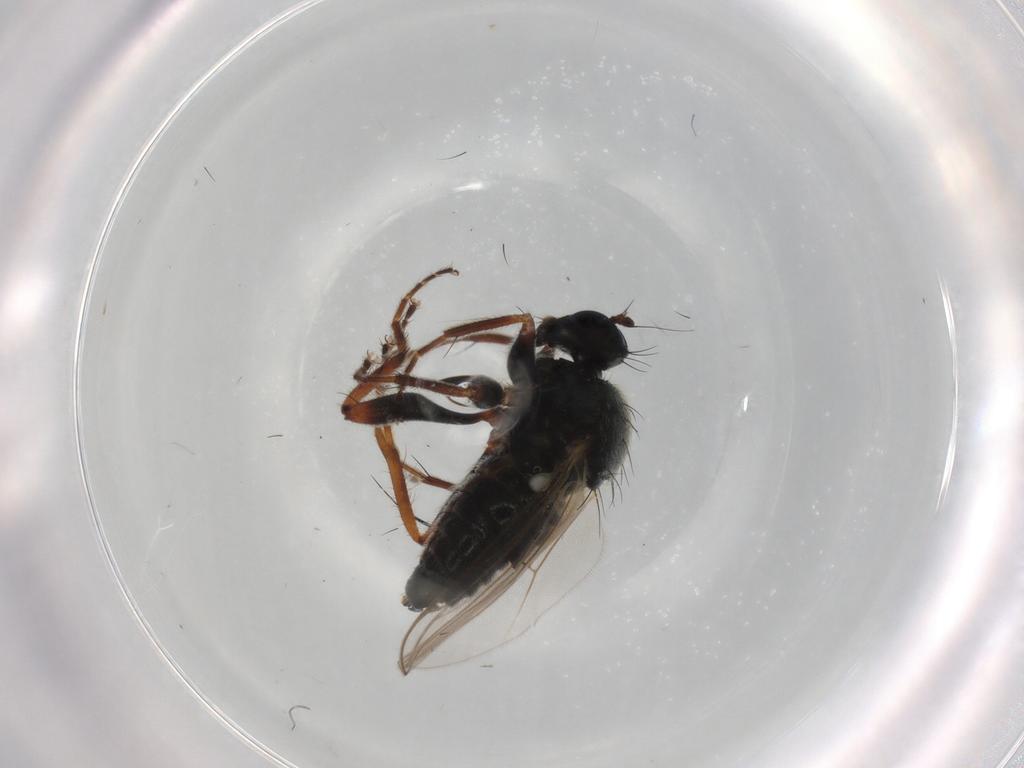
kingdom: Animalia
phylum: Arthropoda
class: Insecta
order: Diptera
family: Hybotidae
